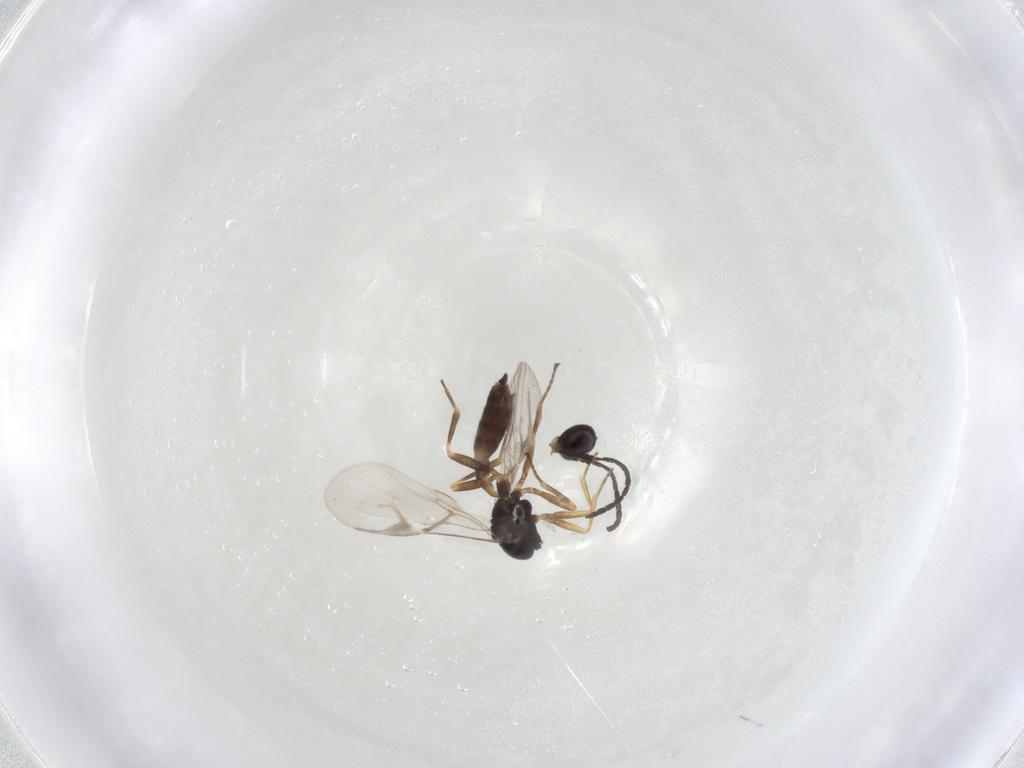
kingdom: Animalia
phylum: Arthropoda
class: Insecta
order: Hymenoptera
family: Braconidae
